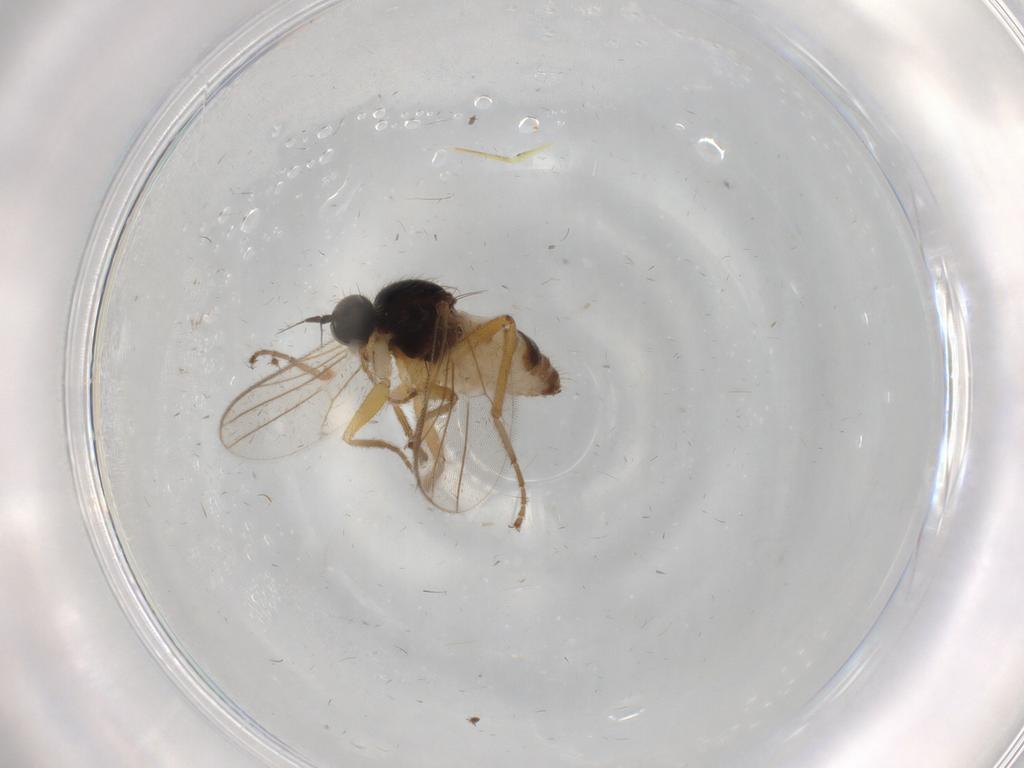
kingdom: Animalia
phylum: Arthropoda
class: Insecta
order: Diptera
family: Hybotidae
